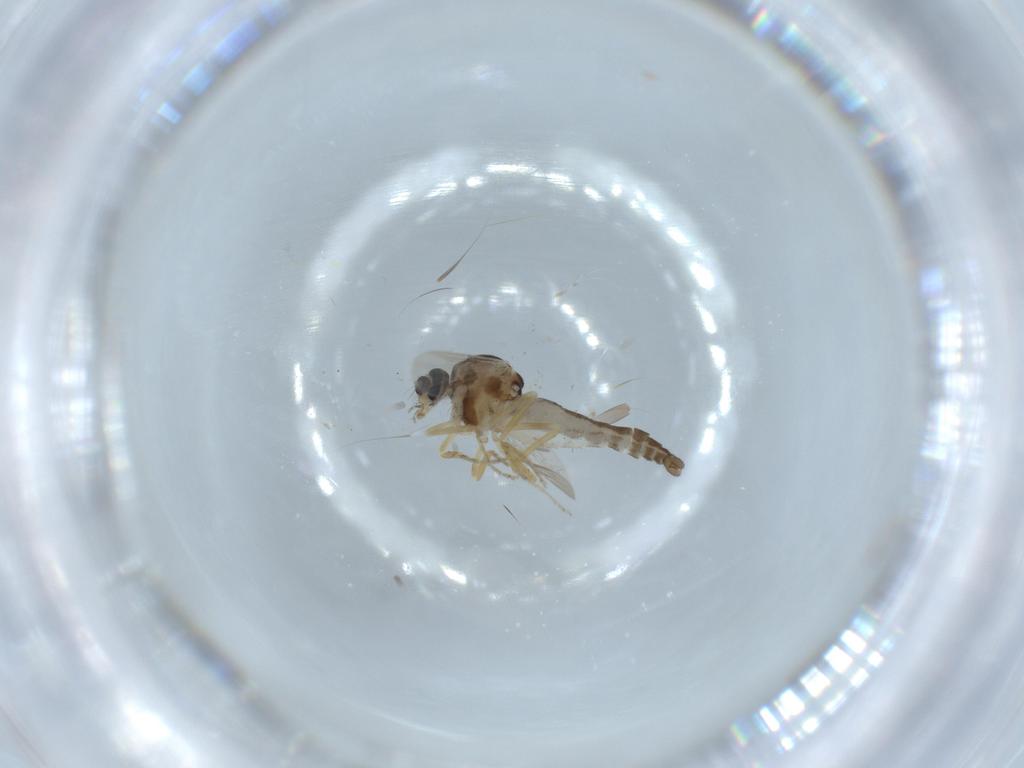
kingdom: Animalia
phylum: Arthropoda
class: Insecta
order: Diptera
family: Ceratopogonidae
